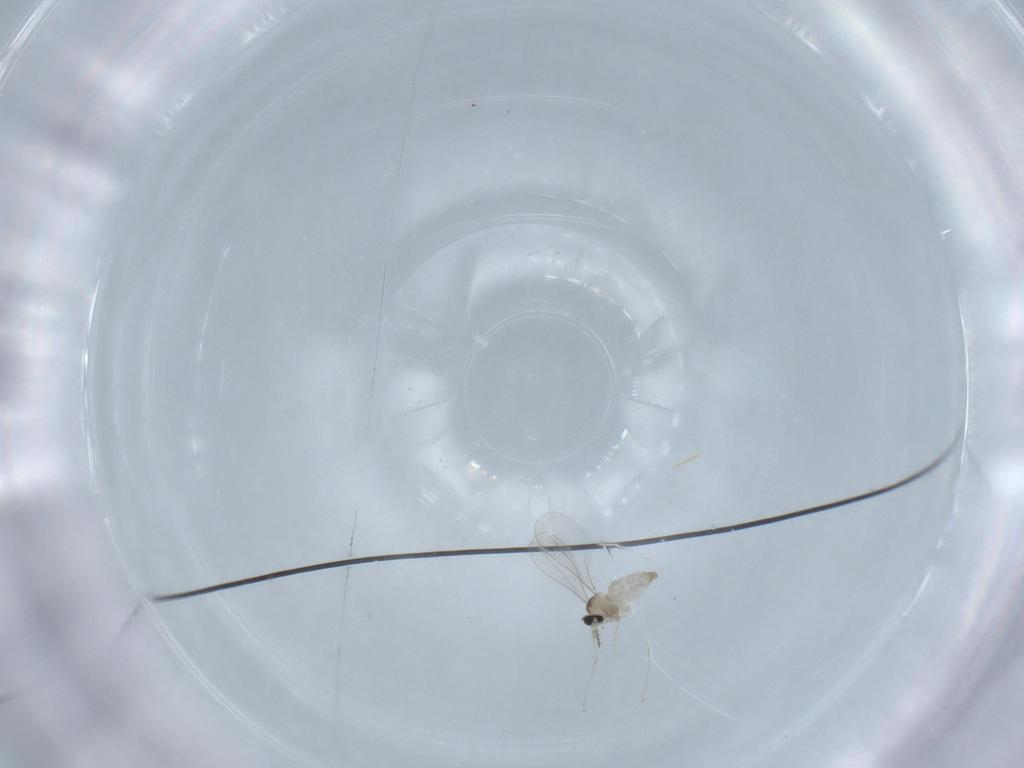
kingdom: Animalia
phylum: Arthropoda
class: Insecta
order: Diptera
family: Cecidomyiidae
